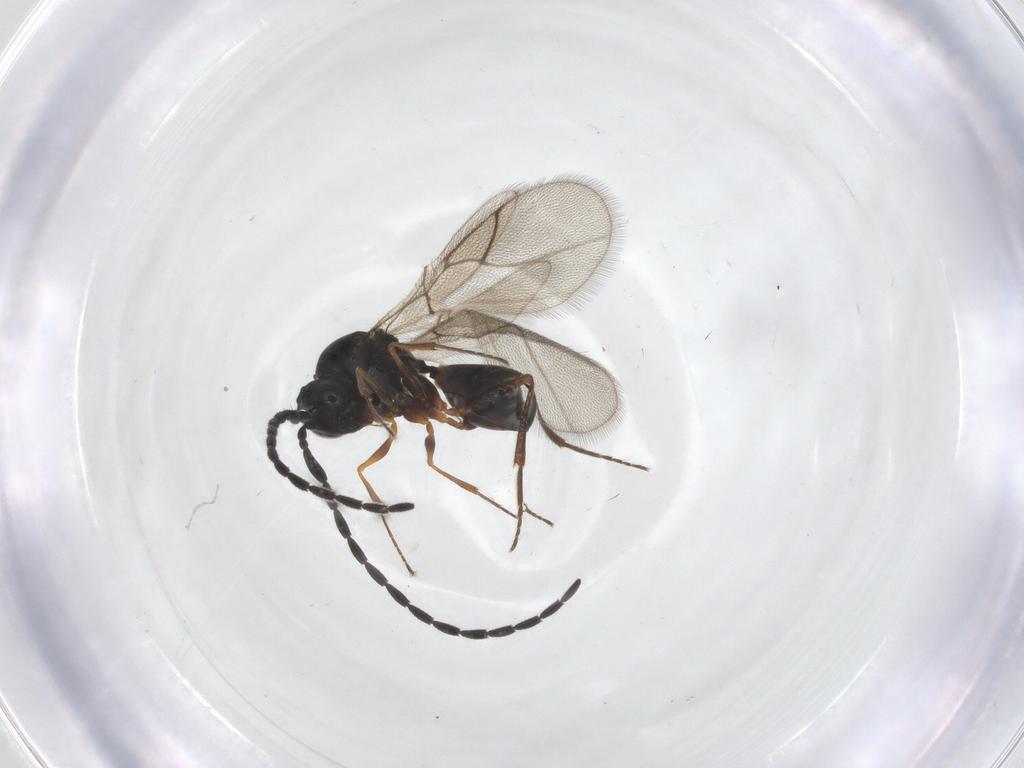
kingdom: Animalia
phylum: Arthropoda
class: Insecta
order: Hymenoptera
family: Figitidae
